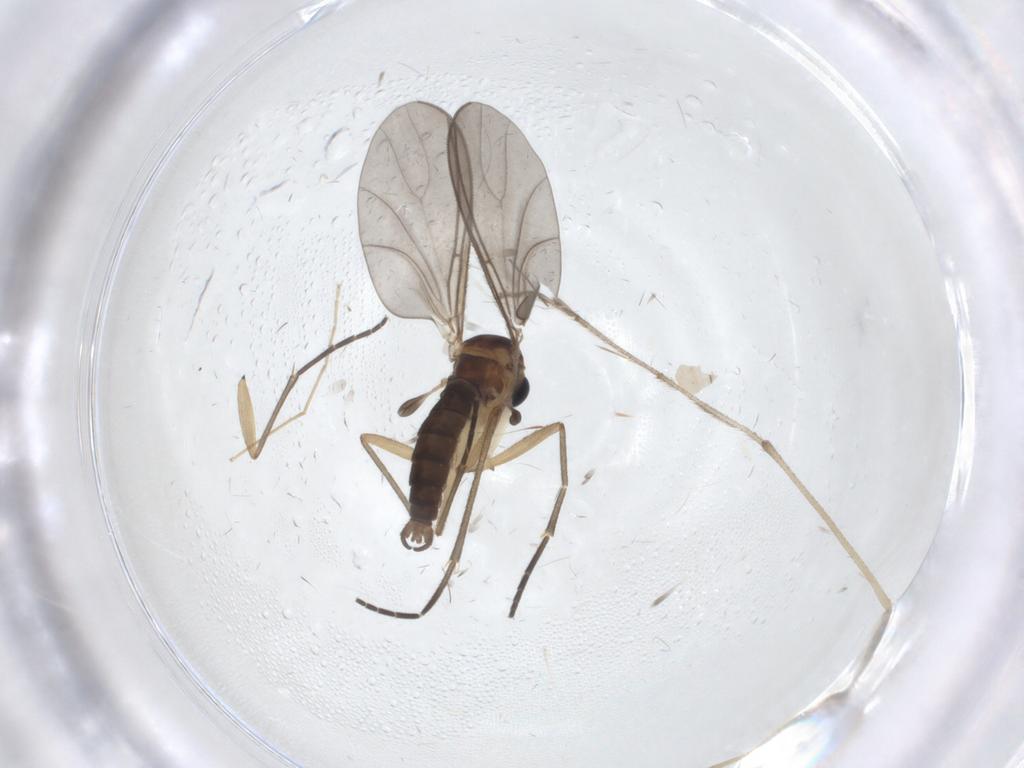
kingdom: Animalia
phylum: Arthropoda
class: Insecta
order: Diptera
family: Sciaridae
